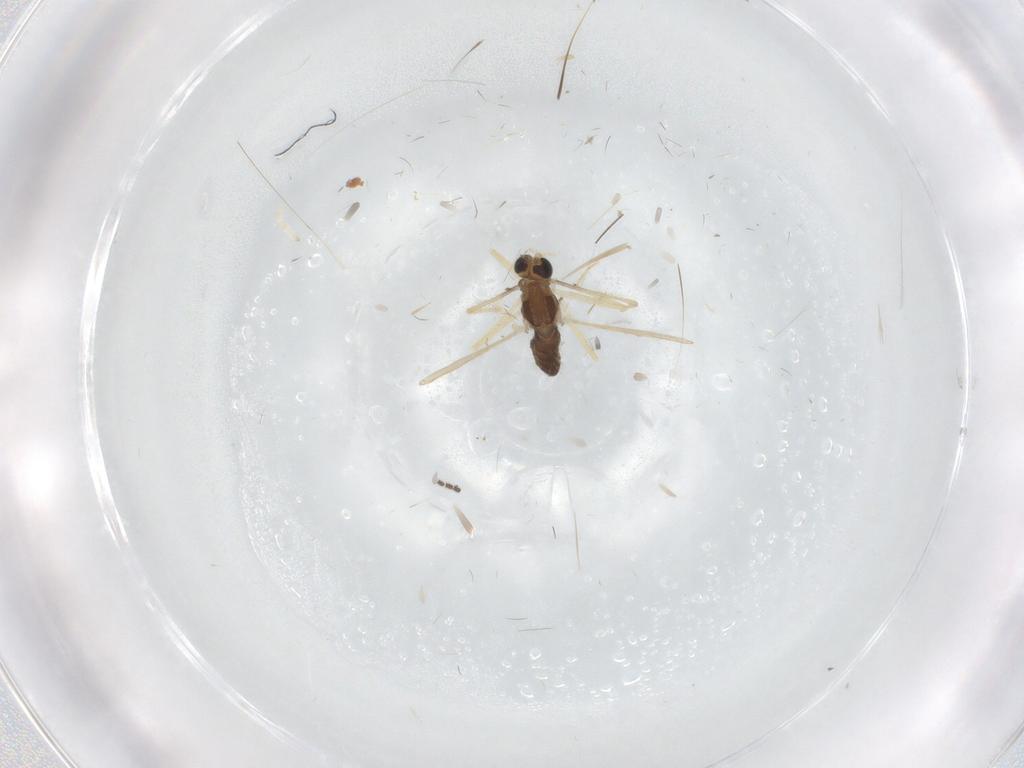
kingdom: Animalia
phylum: Arthropoda
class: Insecta
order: Diptera
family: Chironomidae
